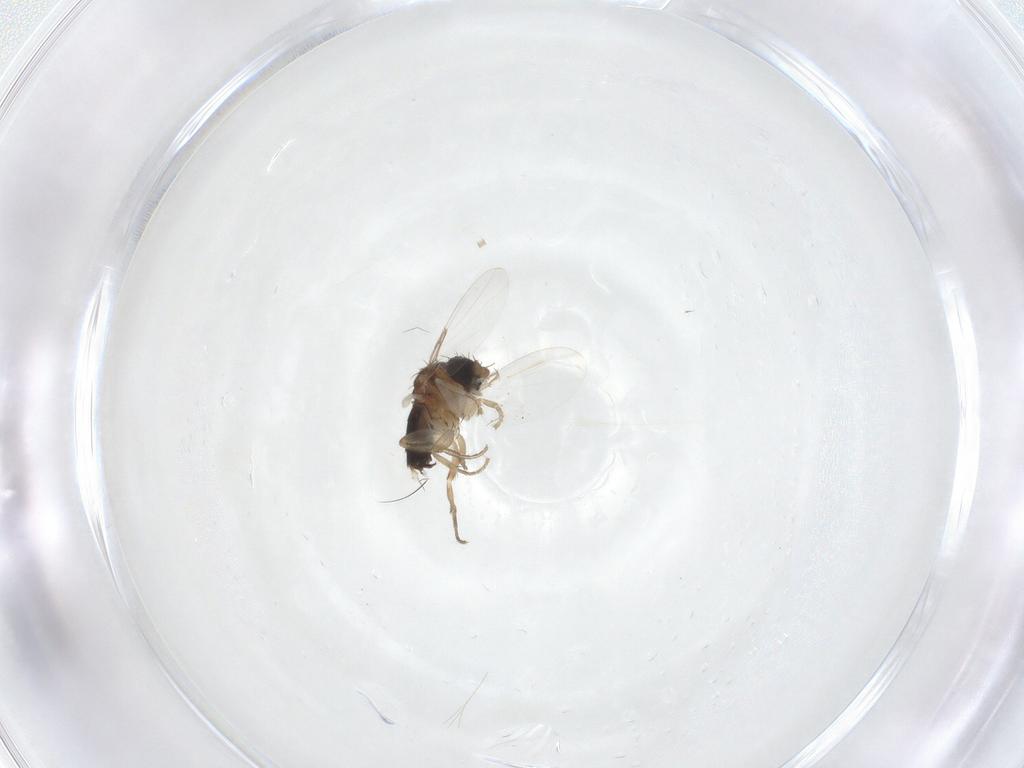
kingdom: Animalia
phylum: Arthropoda
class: Insecta
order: Diptera
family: Phoridae
